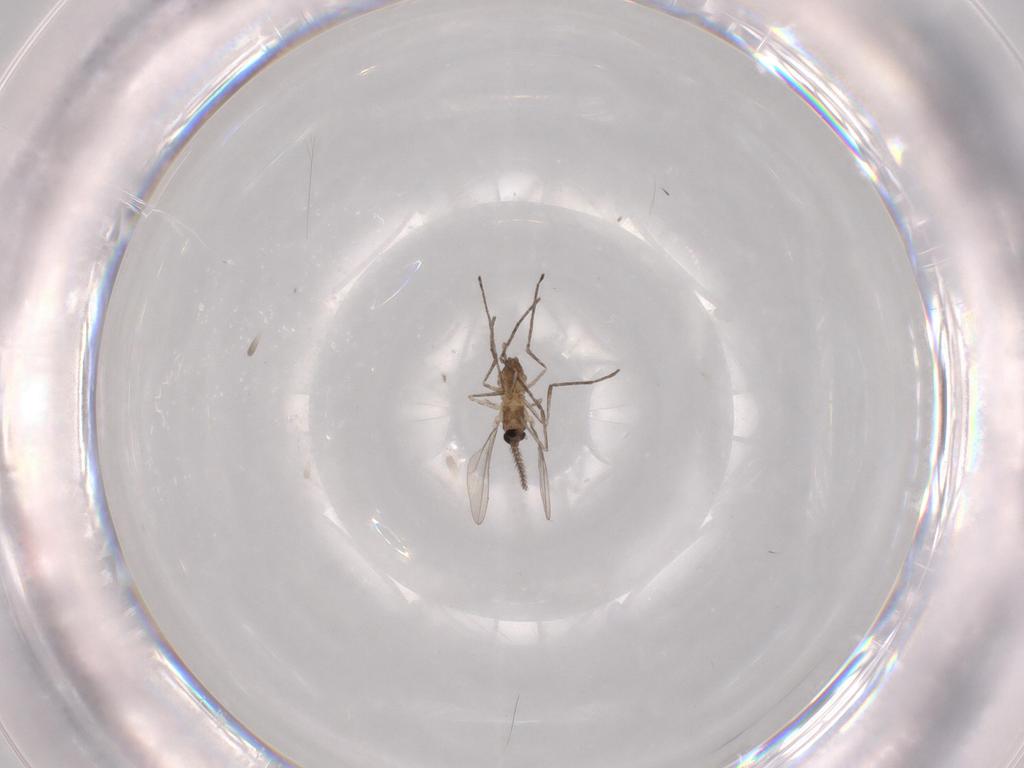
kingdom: Animalia
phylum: Arthropoda
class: Insecta
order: Diptera
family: Cecidomyiidae
